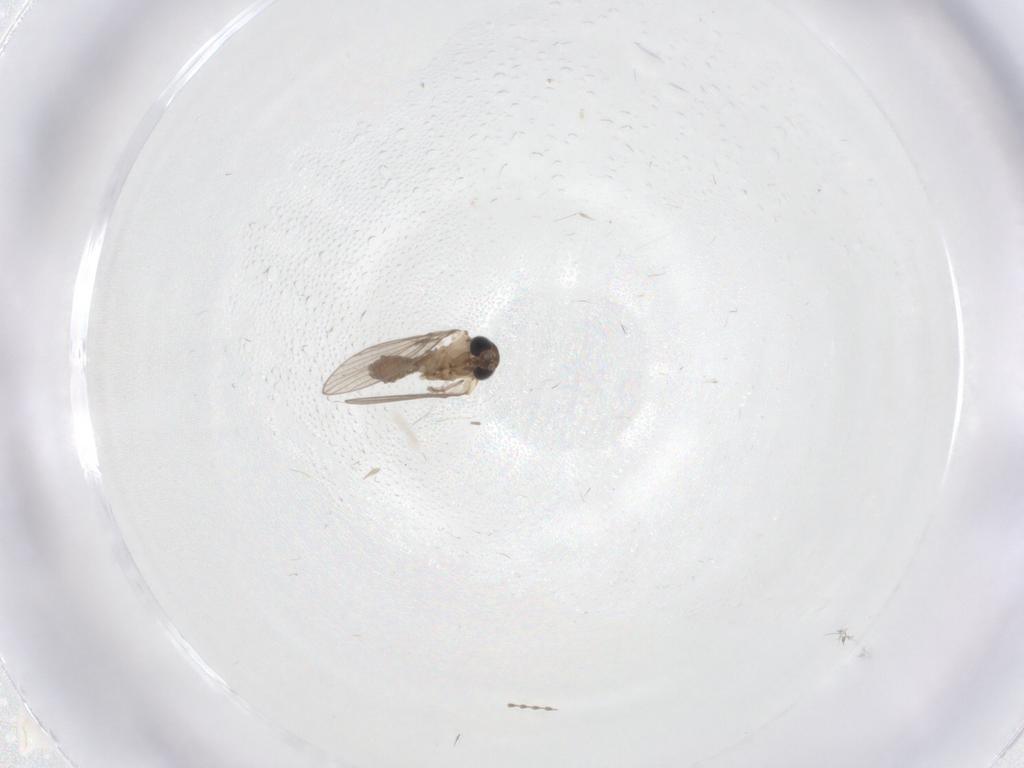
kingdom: Animalia
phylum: Arthropoda
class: Insecta
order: Diptera
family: Psychodidae
